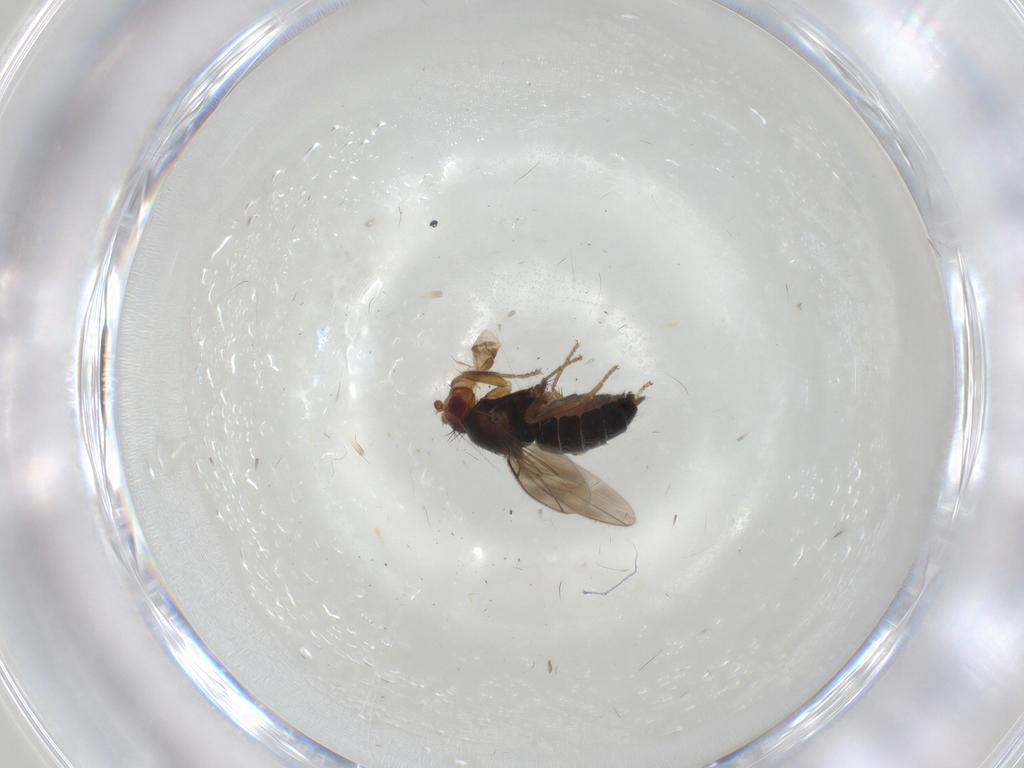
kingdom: Animalia
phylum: Arthropoda
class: Insecta
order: Diptera
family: Sphaeroceridae
